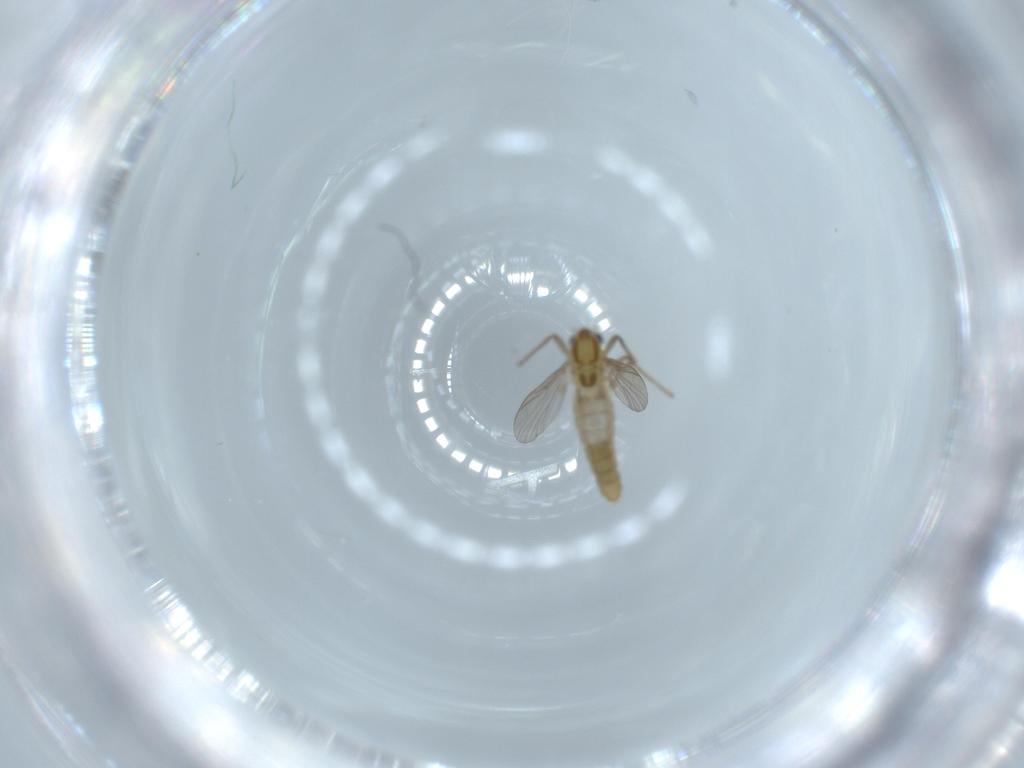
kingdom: Animalia
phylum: Arthropoda
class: Insecta
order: Diptera
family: Chironomidae
